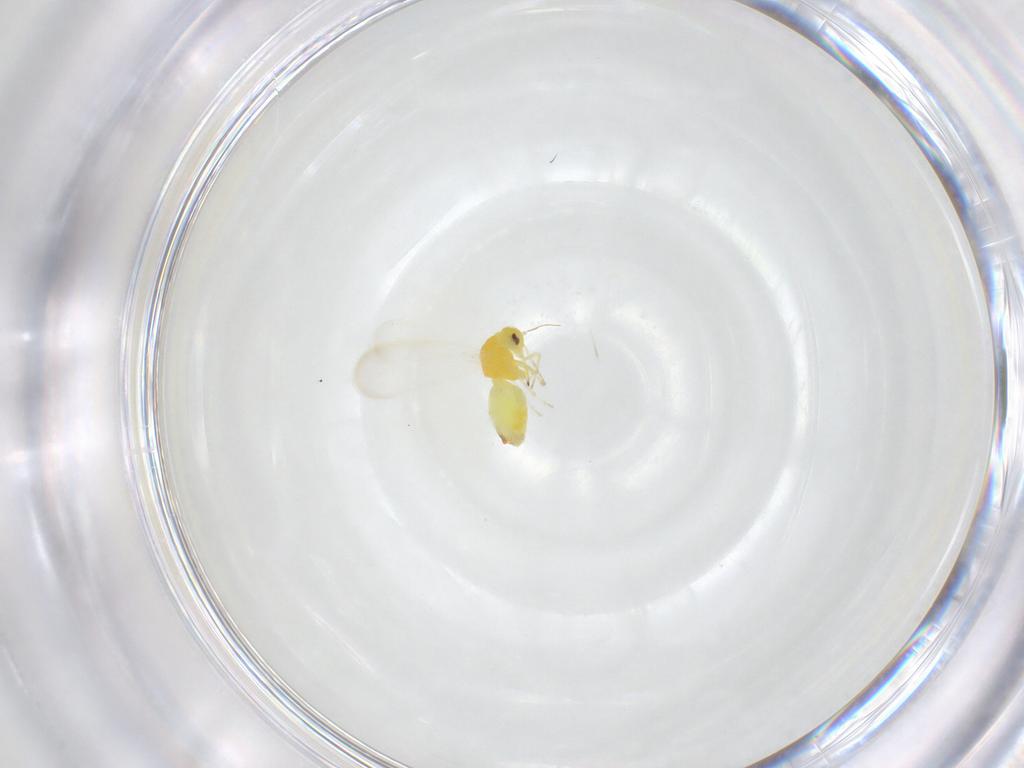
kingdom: Animalia
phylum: Arthropoda
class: Insecta
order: Hemiptera
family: Aleyrodidae
